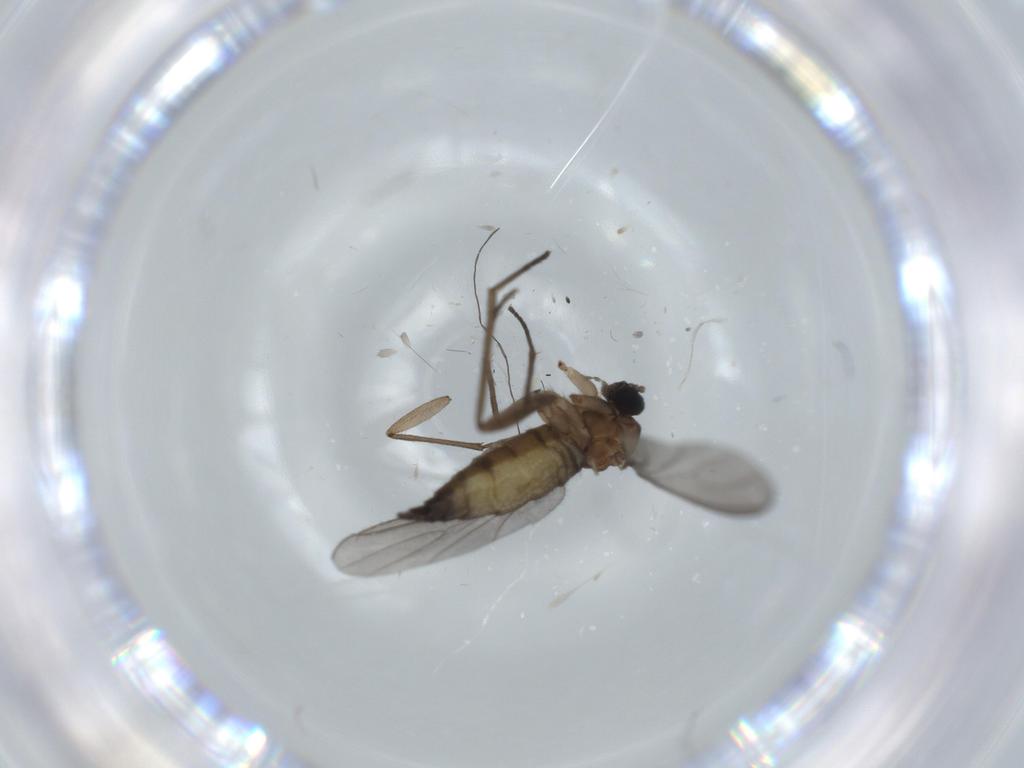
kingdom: Animalia
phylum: Arthropoda
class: Insecta
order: Diptera
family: Sciaridae
